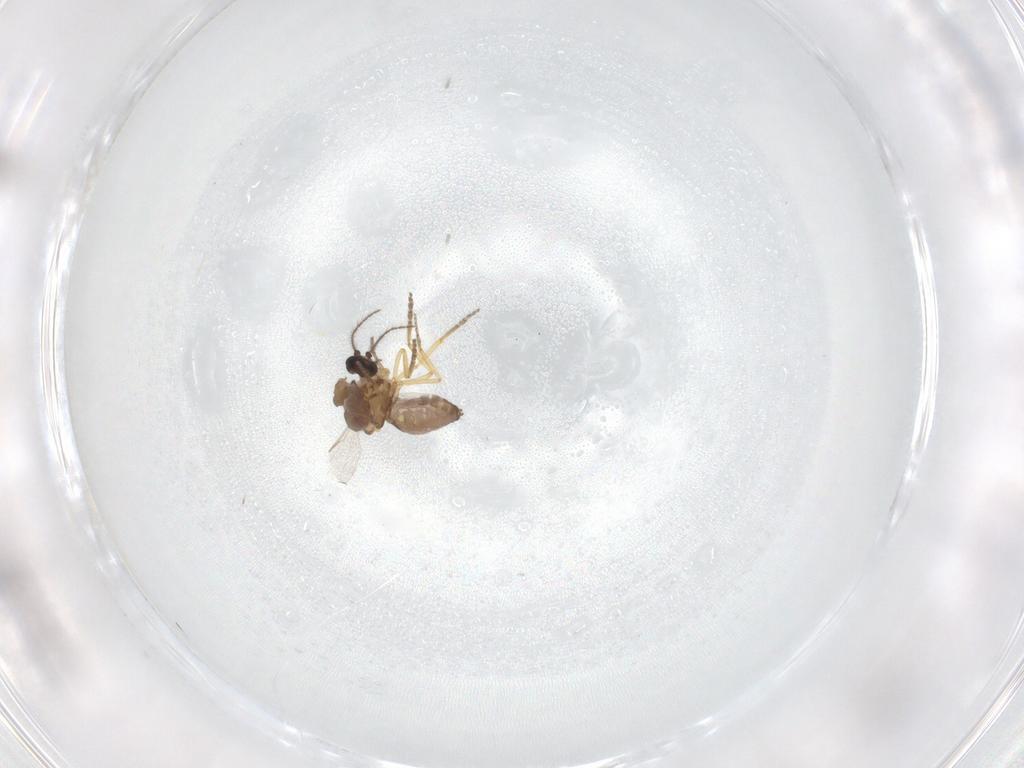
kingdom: Animalia
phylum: Arthropoda
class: Insecta
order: Diptera
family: Ceratopogonidae
